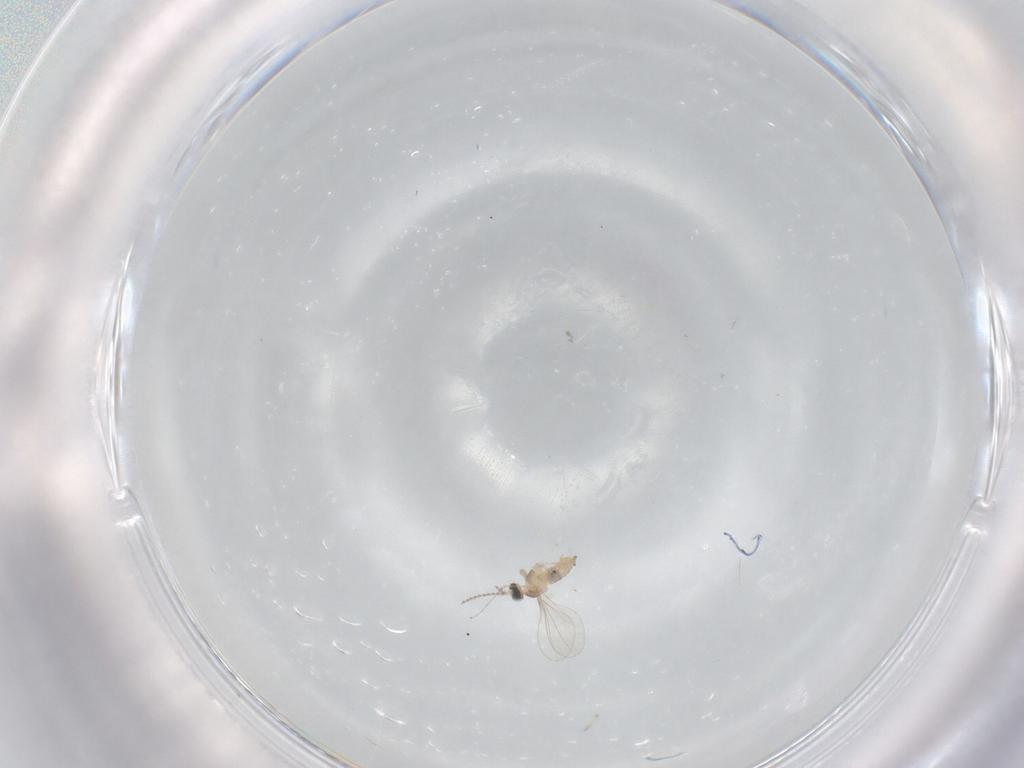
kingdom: Animalia
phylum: Arthropoda
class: Insecta
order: Diptera
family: Cecidomyiidae
